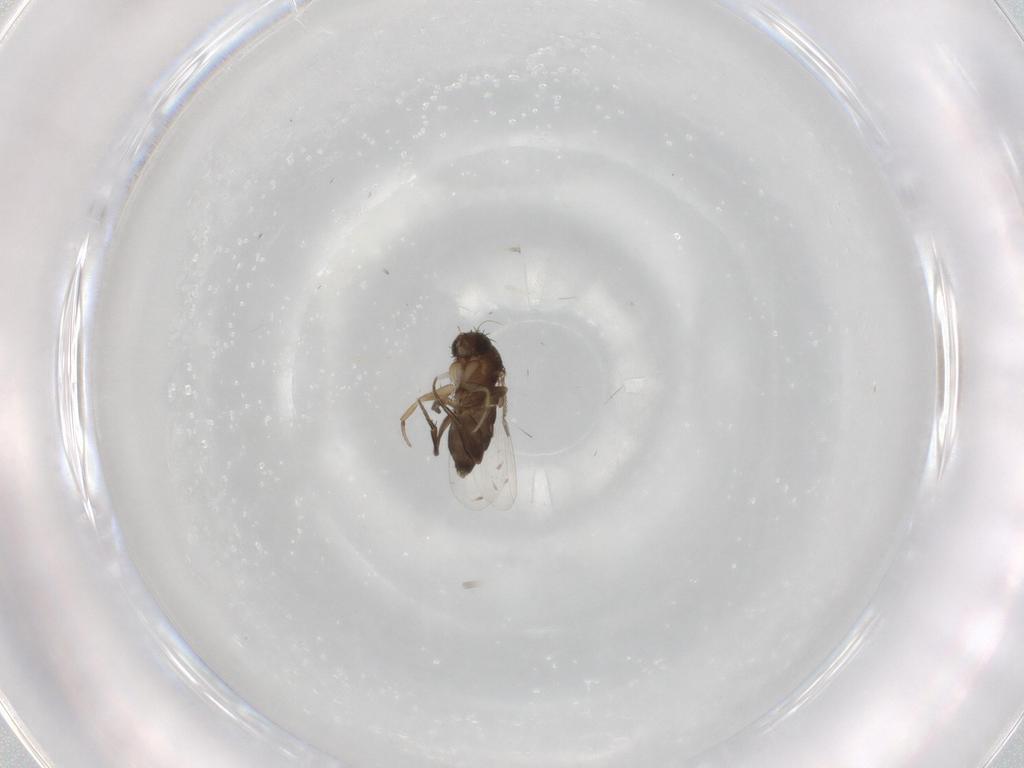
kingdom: Animalia
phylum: Arthropoda
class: Insecta
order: Diptera
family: Phoridae
